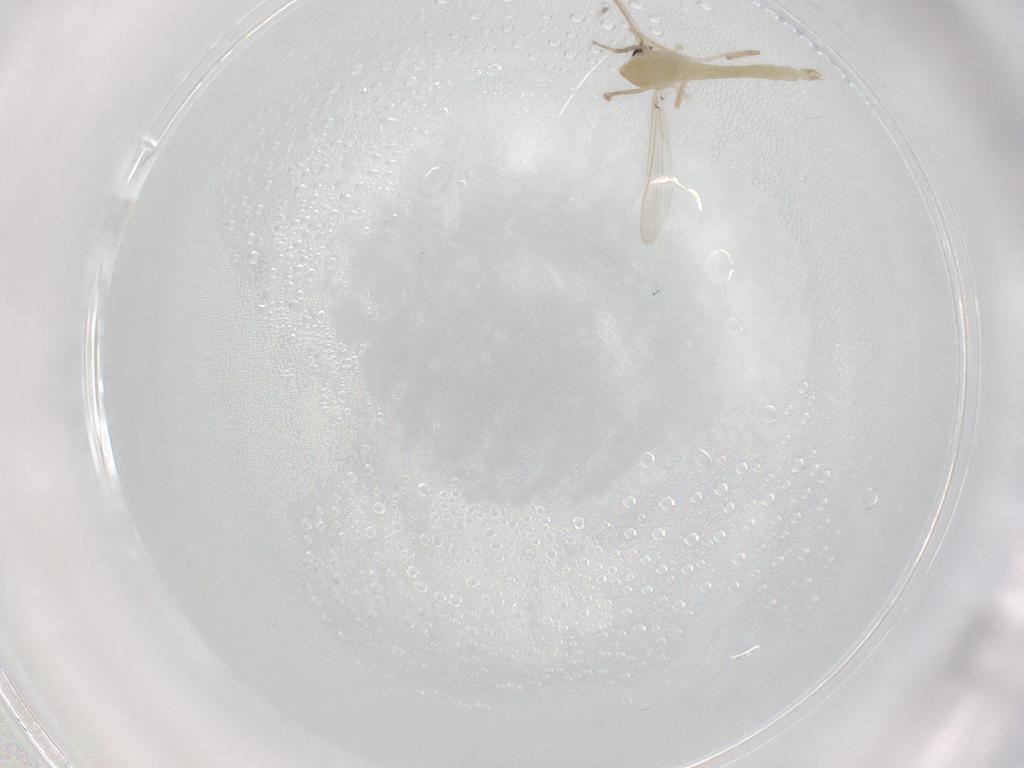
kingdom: Animalia
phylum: Arthropoda
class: Insecta
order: Diptera
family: Chironomidae
